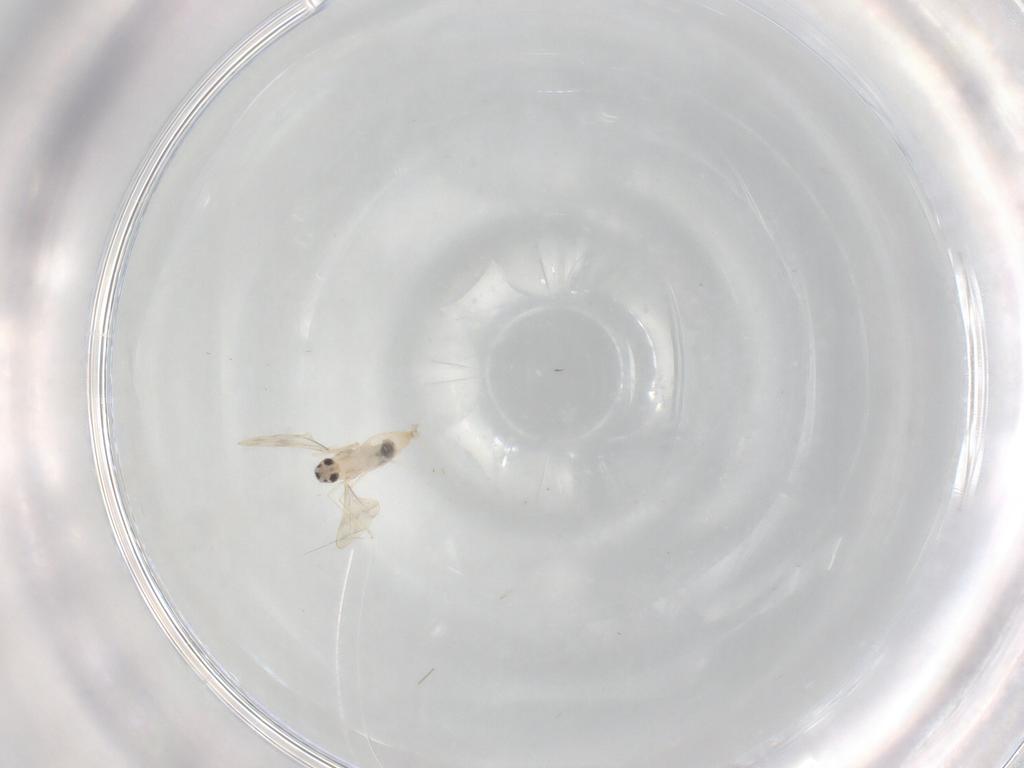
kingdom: Animalia
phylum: Arthropoda
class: Insecta
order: Diptera
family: Cecidomyiidae
